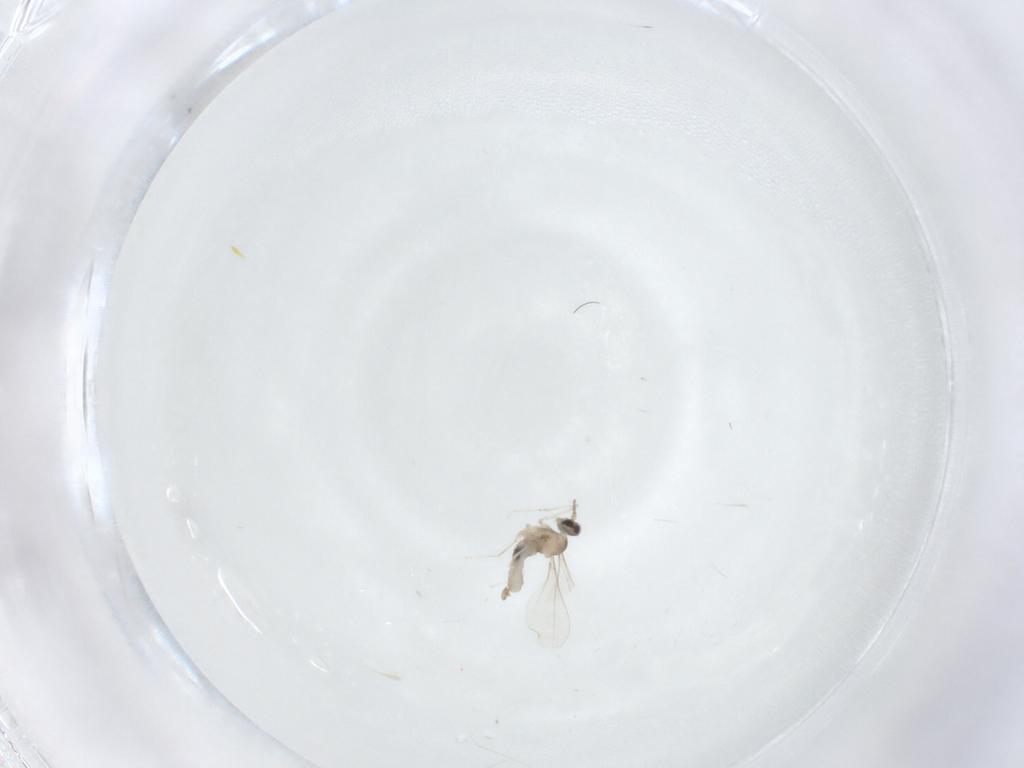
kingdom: Animalia
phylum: Arthropoda
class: Insecta
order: Diptera
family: Cecidomyiidae
